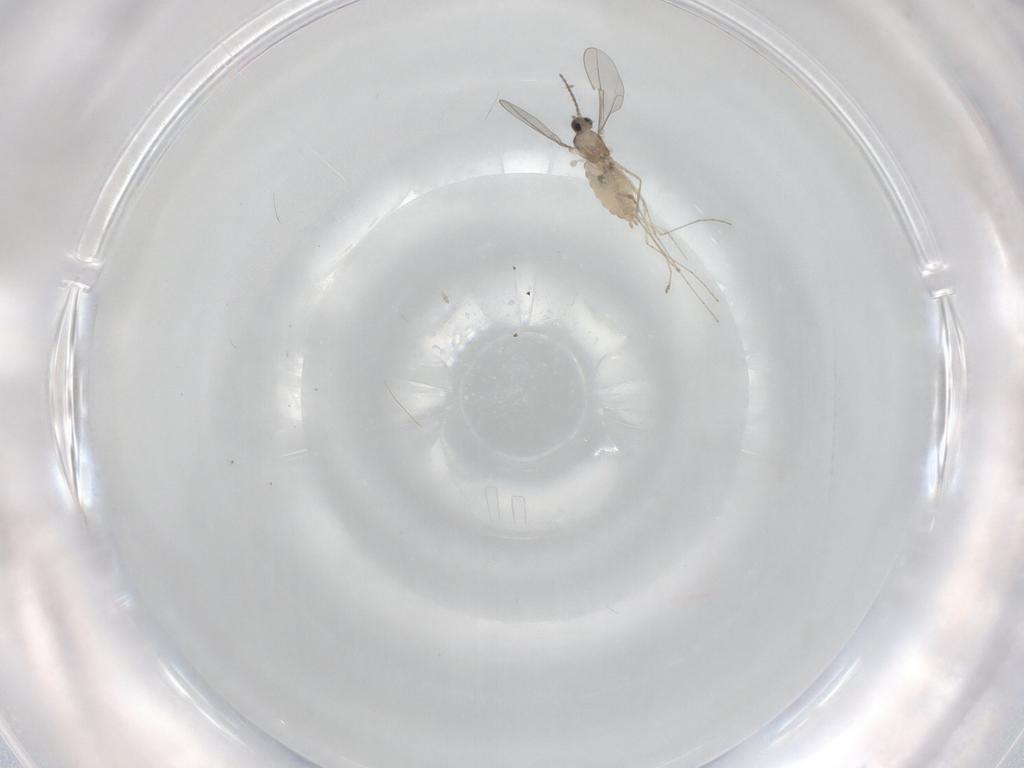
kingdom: Animalia
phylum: Arthropoda
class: Insecta
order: Diptera
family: Cecidomyiidae
